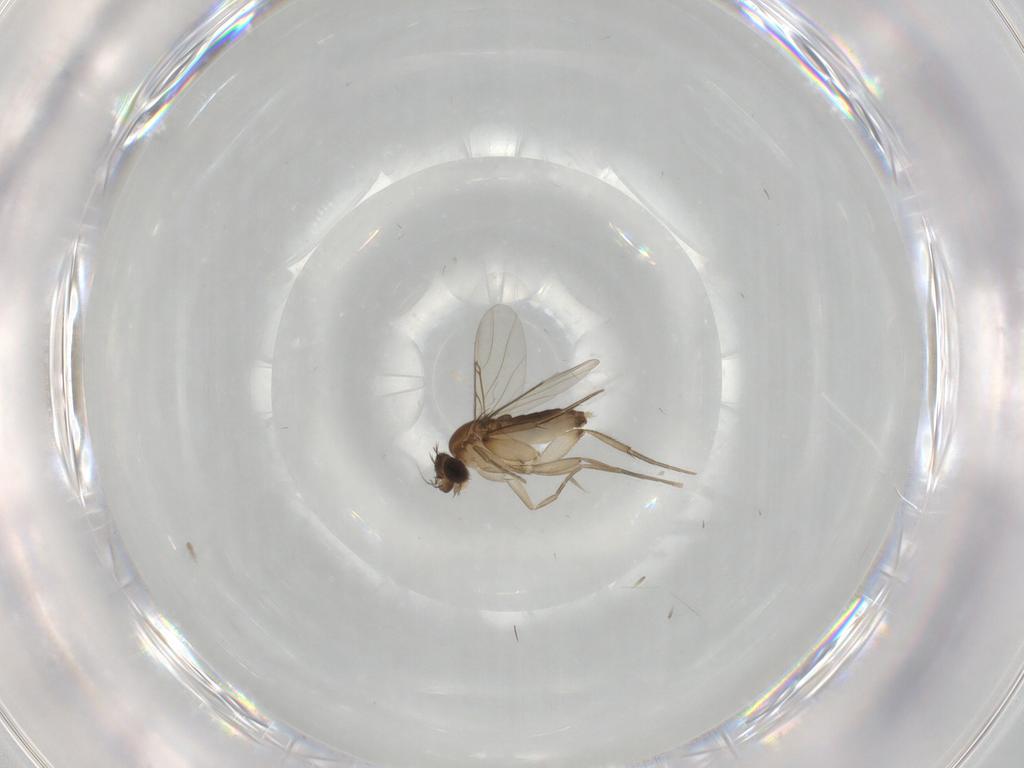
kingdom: Animalia
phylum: Arthropoda
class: Insecta
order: Diptera
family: Phoridae
